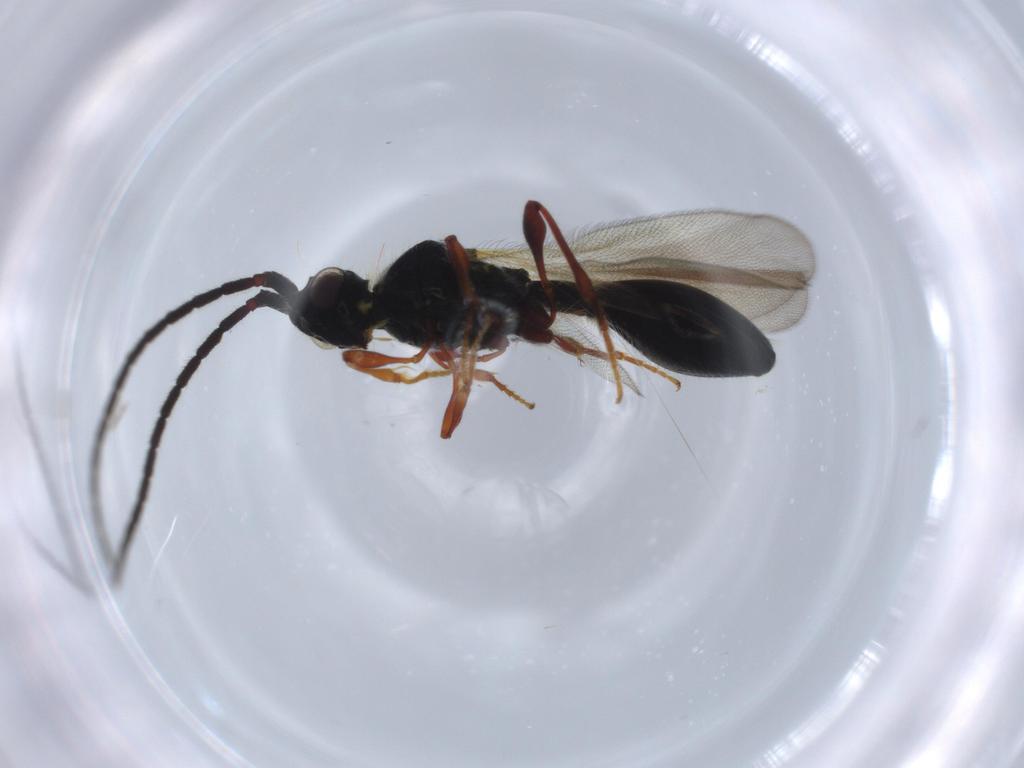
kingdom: Animalia
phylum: Arthropoda
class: Insecta
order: Hymenoptera
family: Diapriidae
